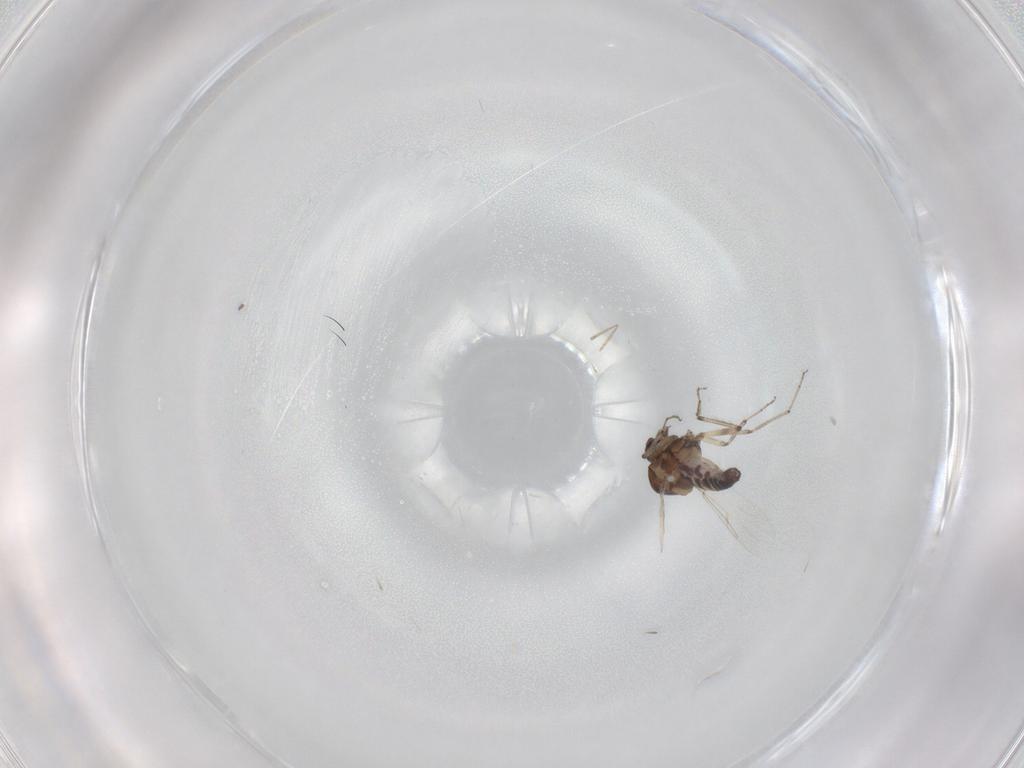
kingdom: Animalia
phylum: Arthropoda
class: Insecta
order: Diptera
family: Ceratopogonidae
